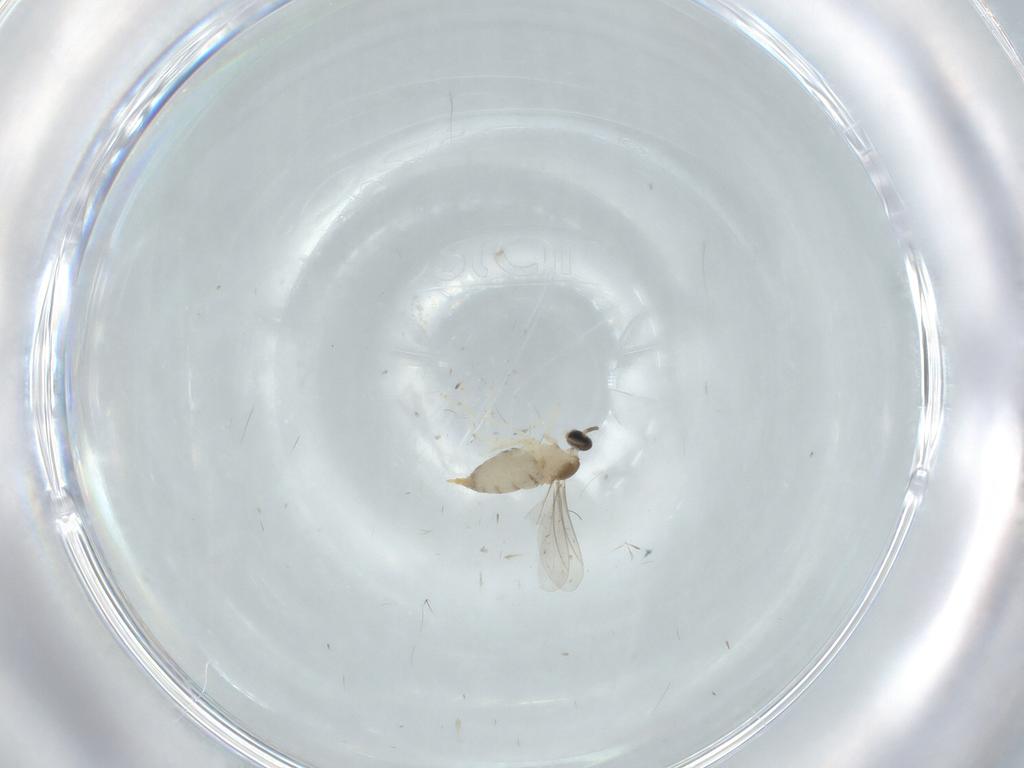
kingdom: Animalia
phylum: Arthropoda
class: Insecta
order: Diptera
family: Cecidomyiidae
